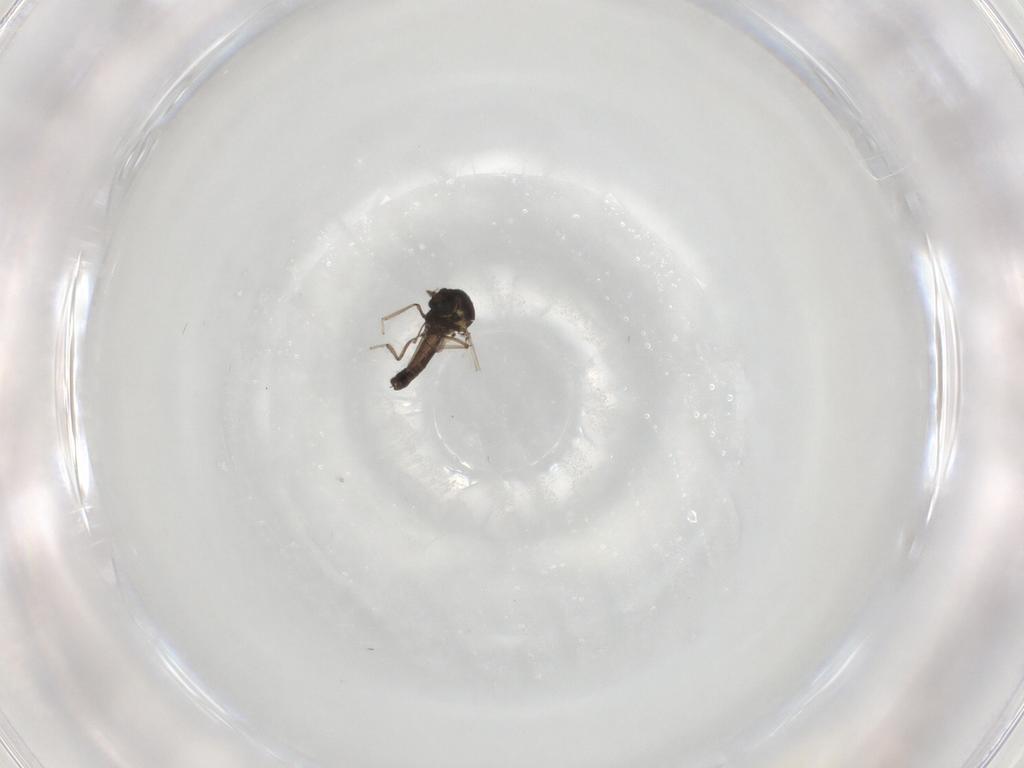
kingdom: Animalia
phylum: Arthropoda
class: Insecta
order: Diptera
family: Ceratopogonidae
